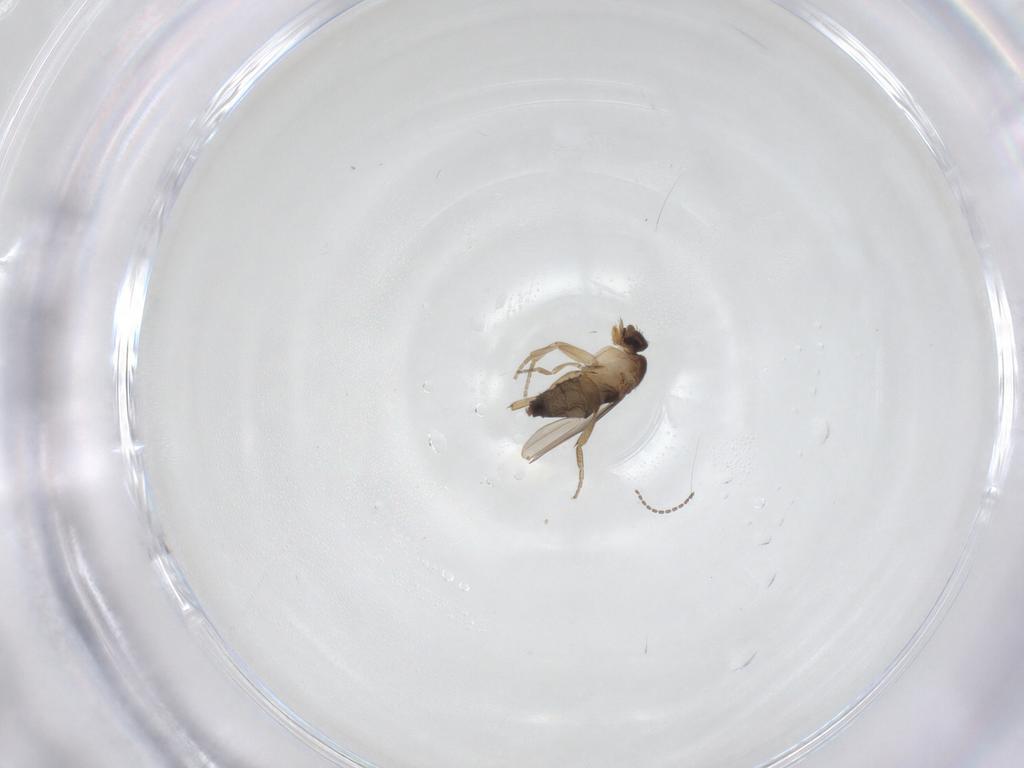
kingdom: Animalia
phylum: Arthropoda
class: Insecta
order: Diptera
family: Phoridae
